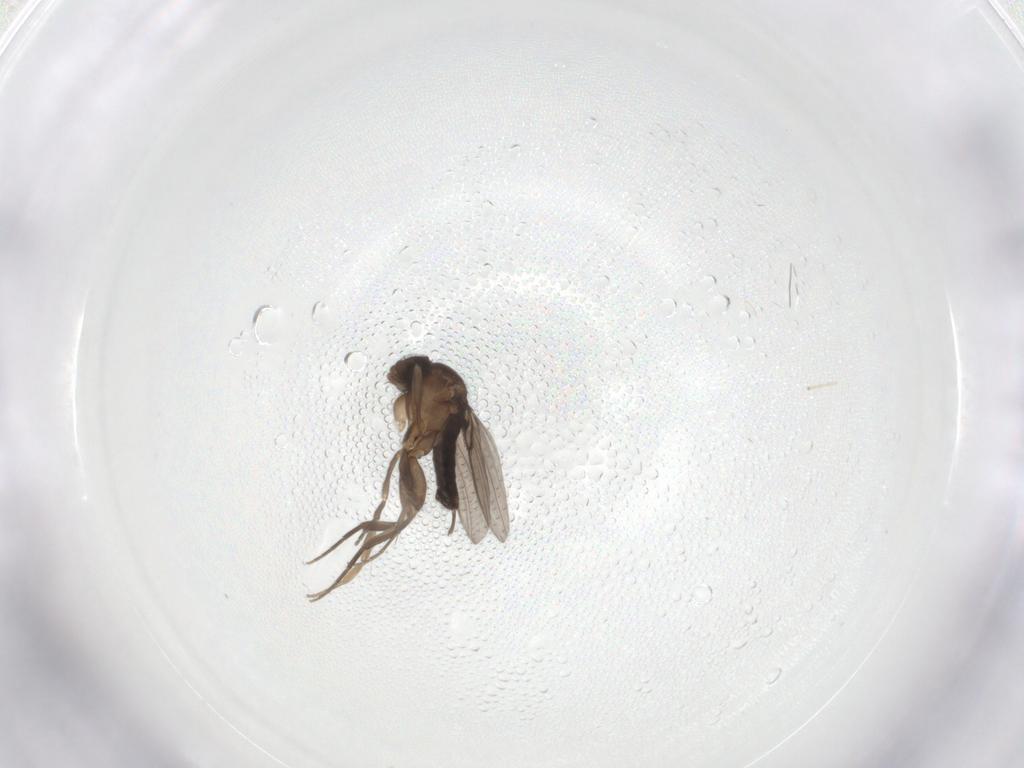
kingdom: Animalia
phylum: Arthropoda
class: Insecta
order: Diptera
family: Phoridae
